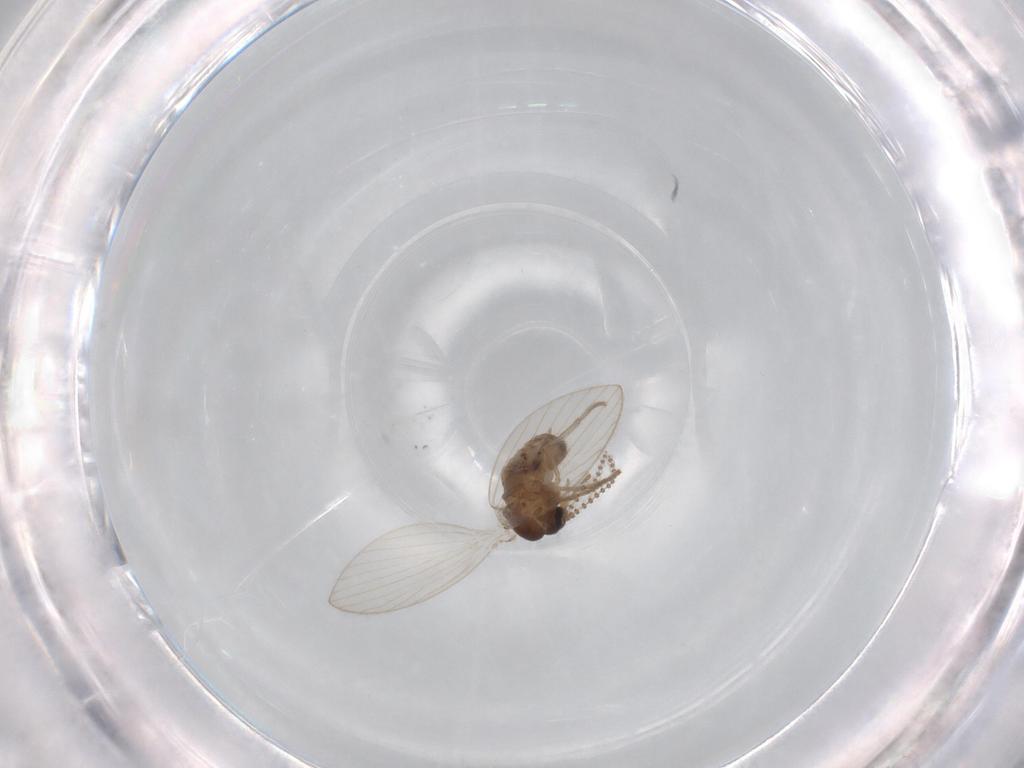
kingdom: Animalia
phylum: Arthropoda
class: Insecta
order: Diptera
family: Psychodidae
